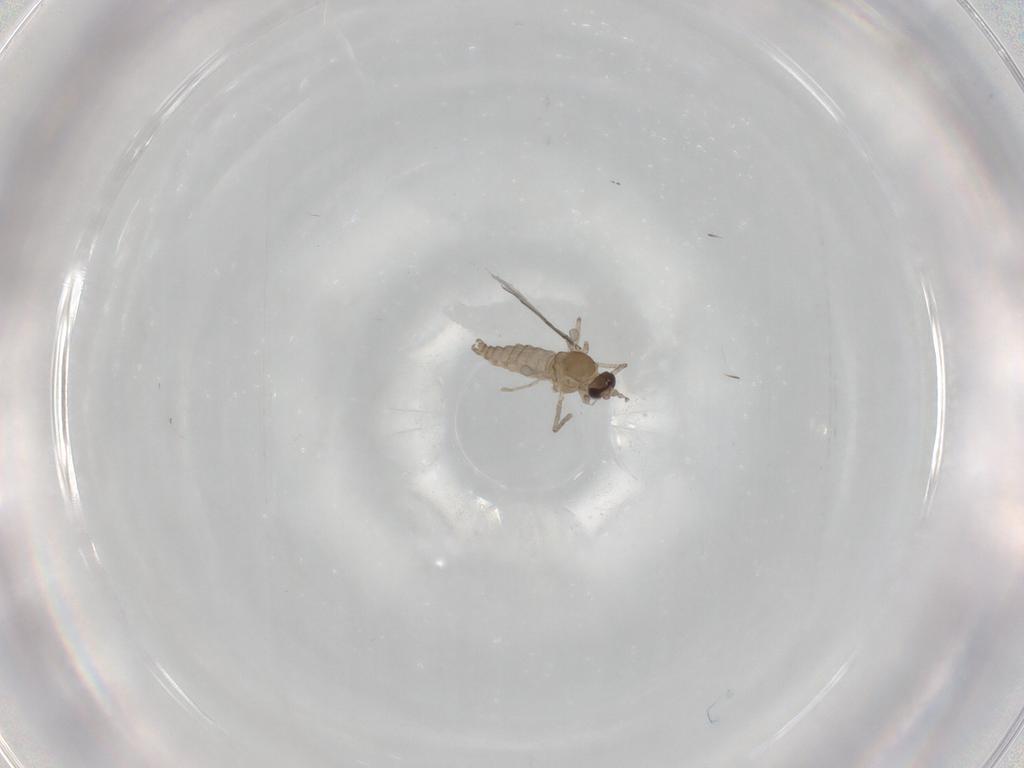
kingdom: Animalia
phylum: Arthropoda
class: Insecta
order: Diptera
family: Cecidomyiidae
